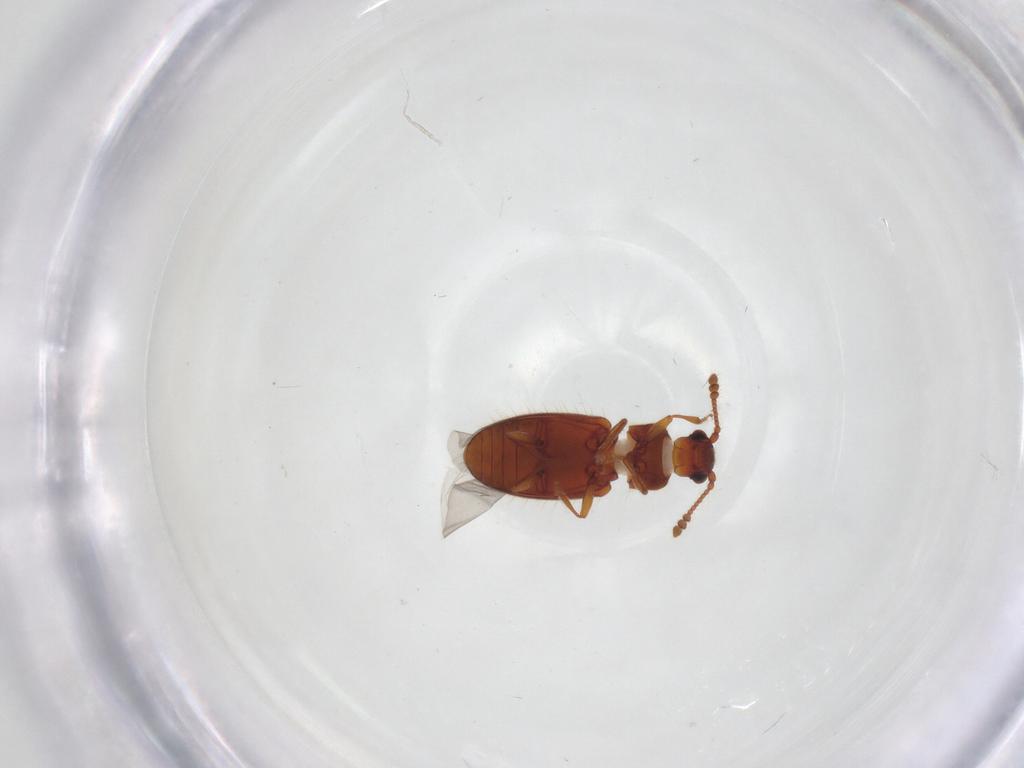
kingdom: Animalia
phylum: Arthropoda
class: Insecta
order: Coleoptera
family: Cryptophagidae
